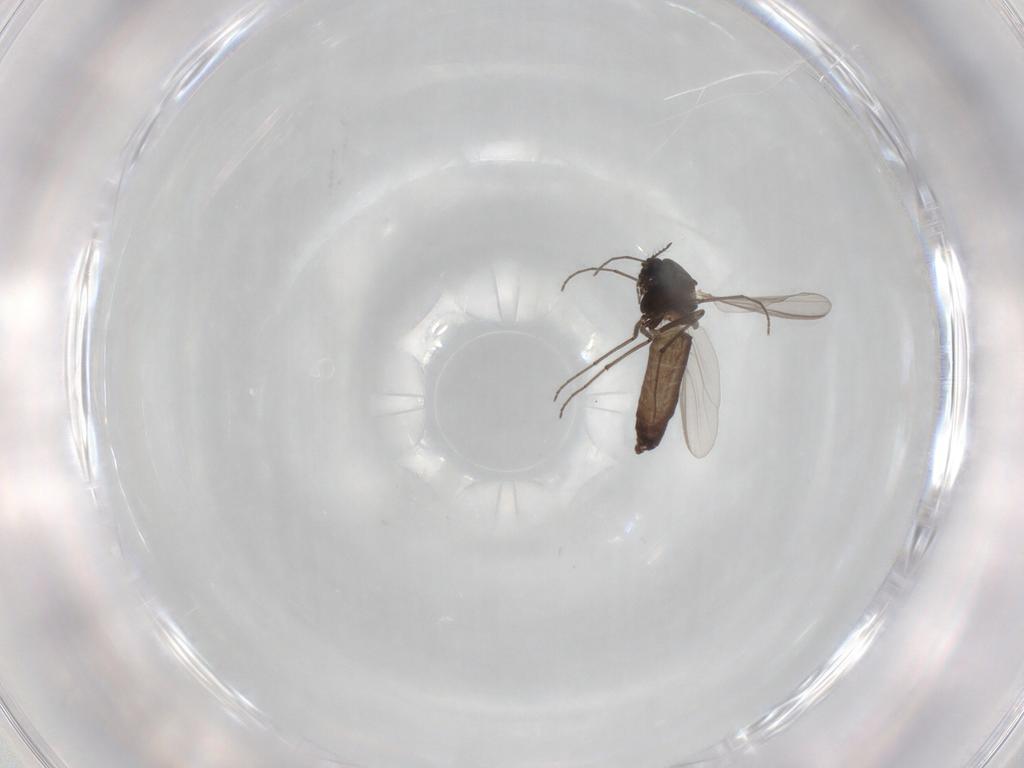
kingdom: Animalia
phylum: Arthropoda
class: Insecta
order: Diptera
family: Chironomidae
